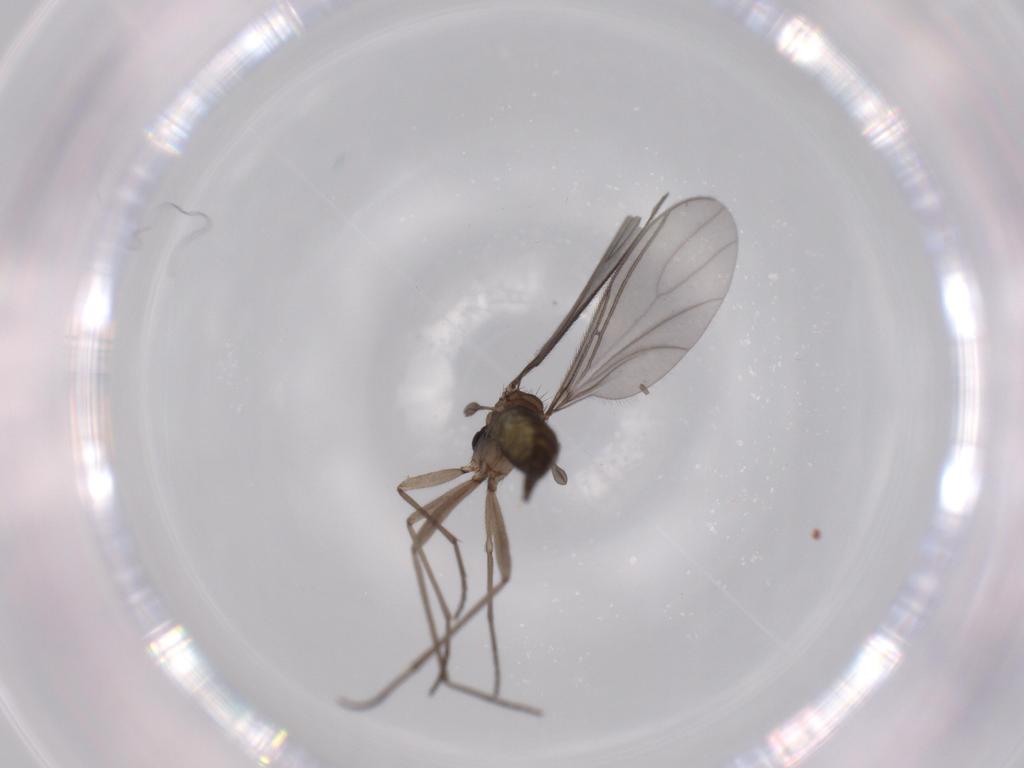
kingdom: Animalia
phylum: Arthropoda
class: Insecta
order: Diptera
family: Sciaridae
